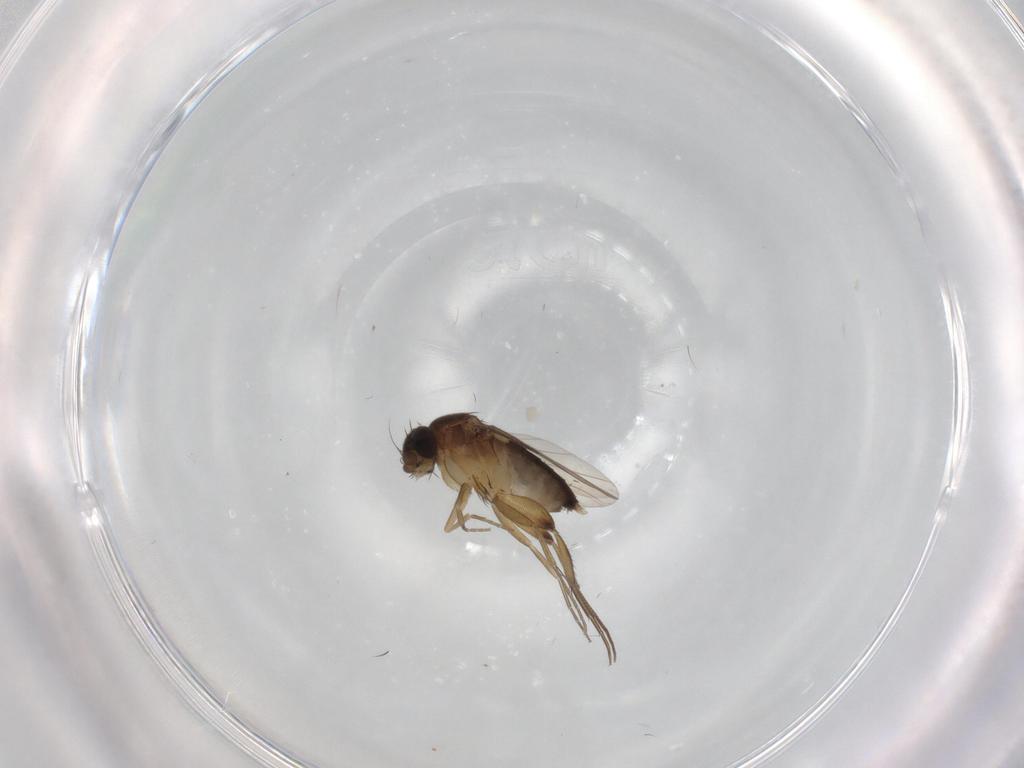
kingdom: Animalia
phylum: Arthropoda
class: Insecta
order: Diptera
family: Phoridae
